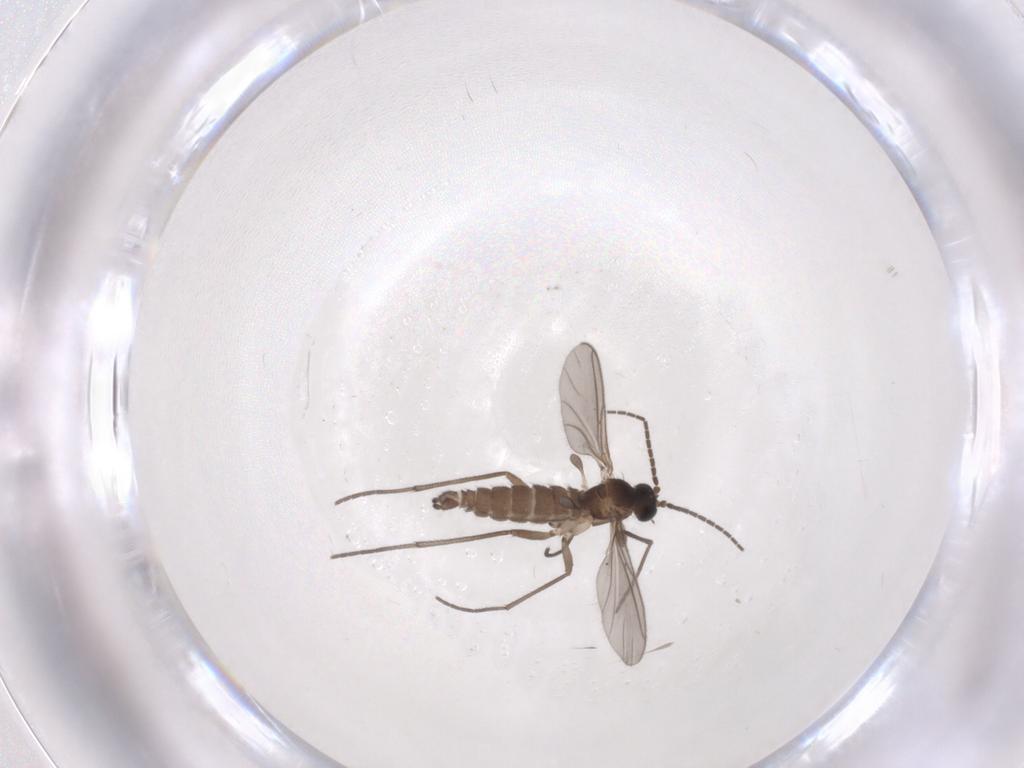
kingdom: Animalia
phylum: Arthropoda
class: Insecta
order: Diptera
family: Sciaridae
